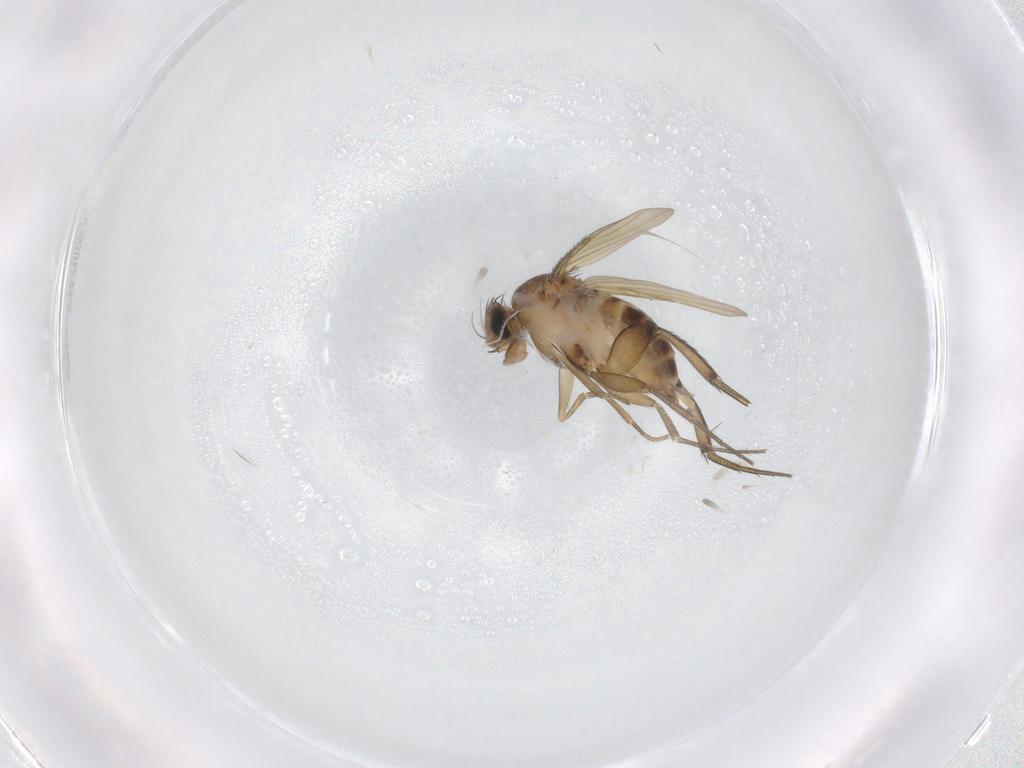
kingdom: Animalia
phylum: Arthropoda
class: Insecta
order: Diptera
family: Phoridae
